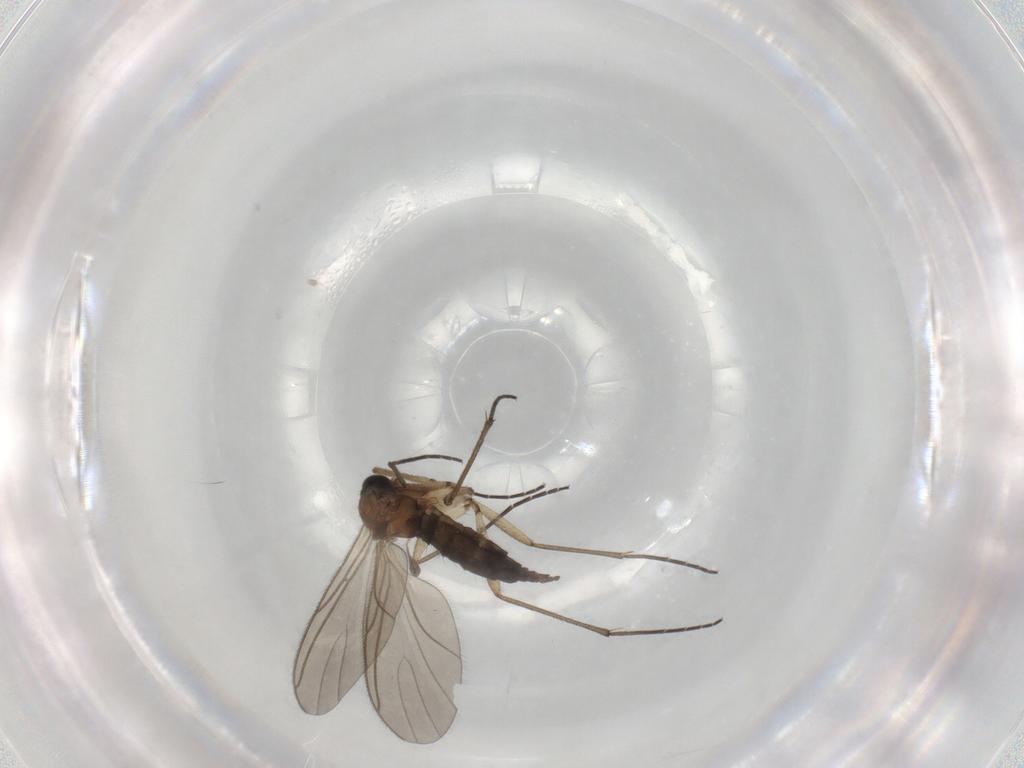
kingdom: Animalia
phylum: Arthropoda
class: Insecta
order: Diptera
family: Sciaridae
